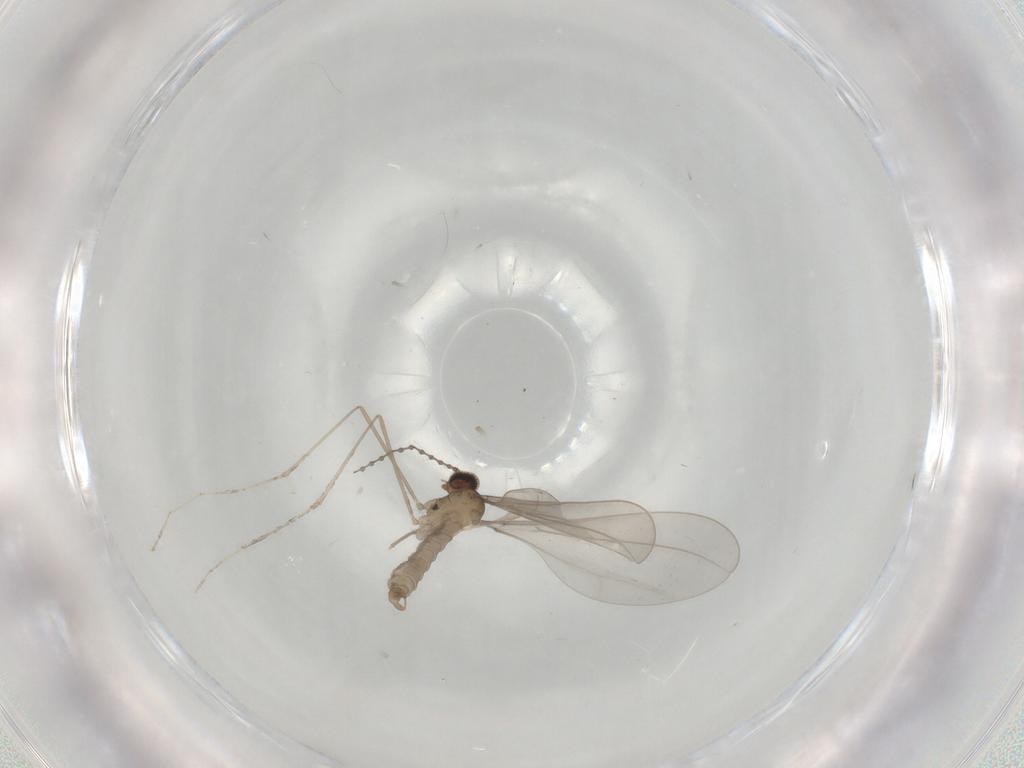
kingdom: Animalia
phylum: Arthropoda
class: Insecta
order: Diptera
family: Cecidomyiidae
